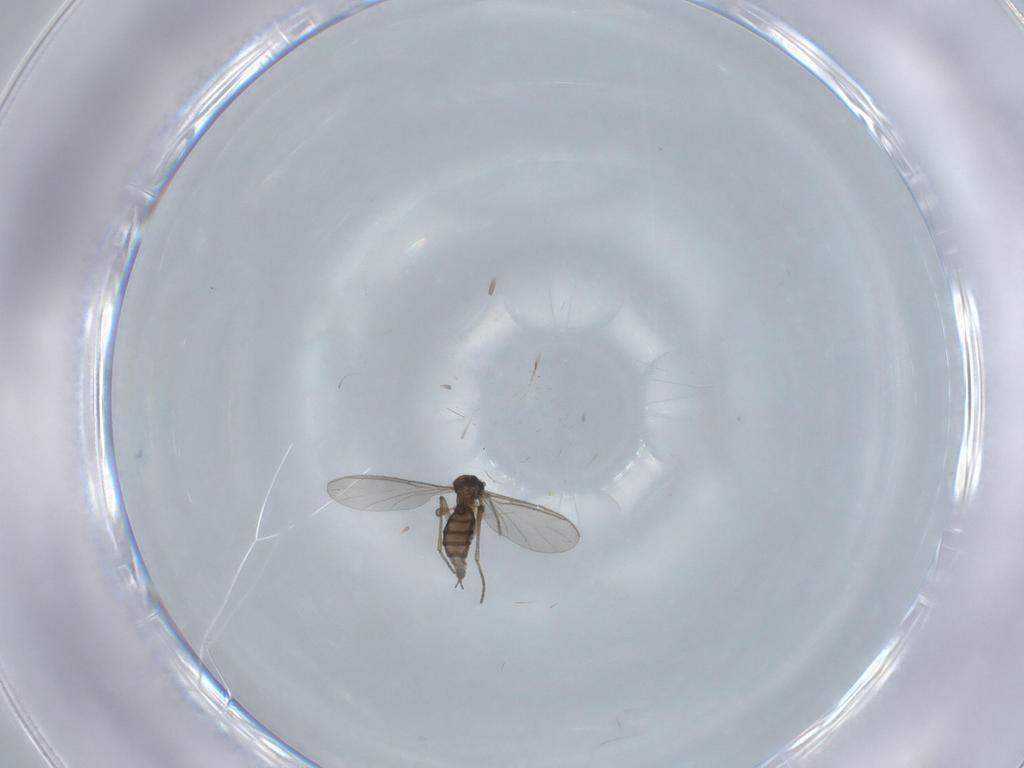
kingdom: Animalia
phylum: Arthropoda
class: Insecta
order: Diptera
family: Sciaridae
